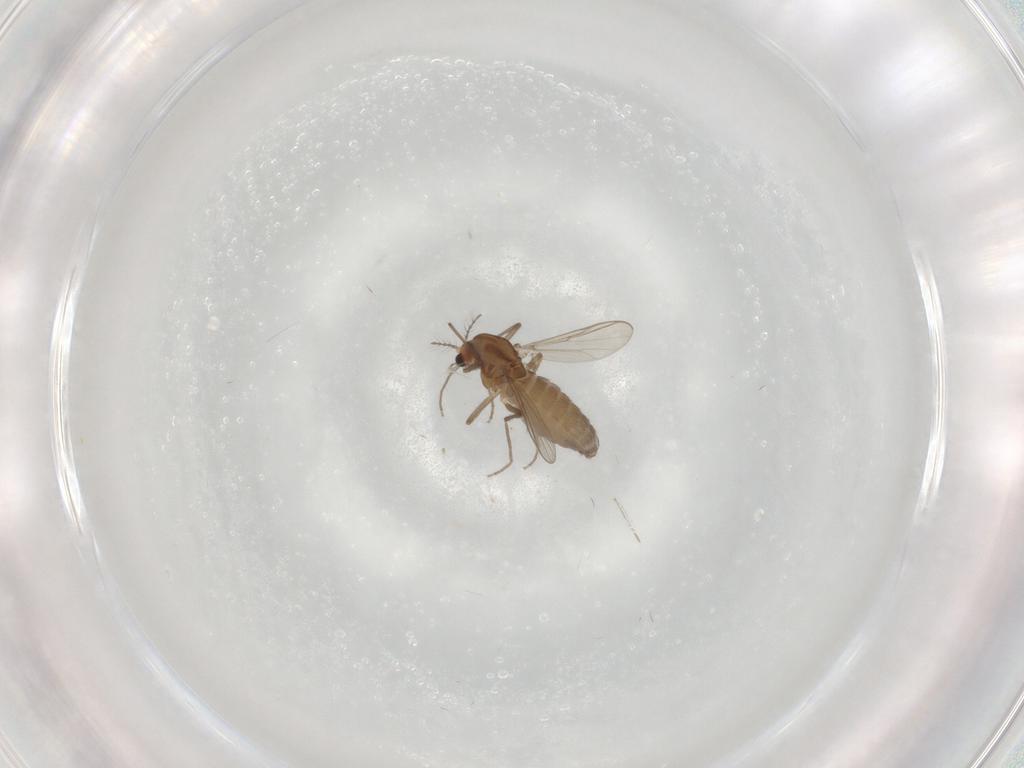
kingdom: Animalia
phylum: Arthropoda
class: Insecta
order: Diptera
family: Chironomidae
